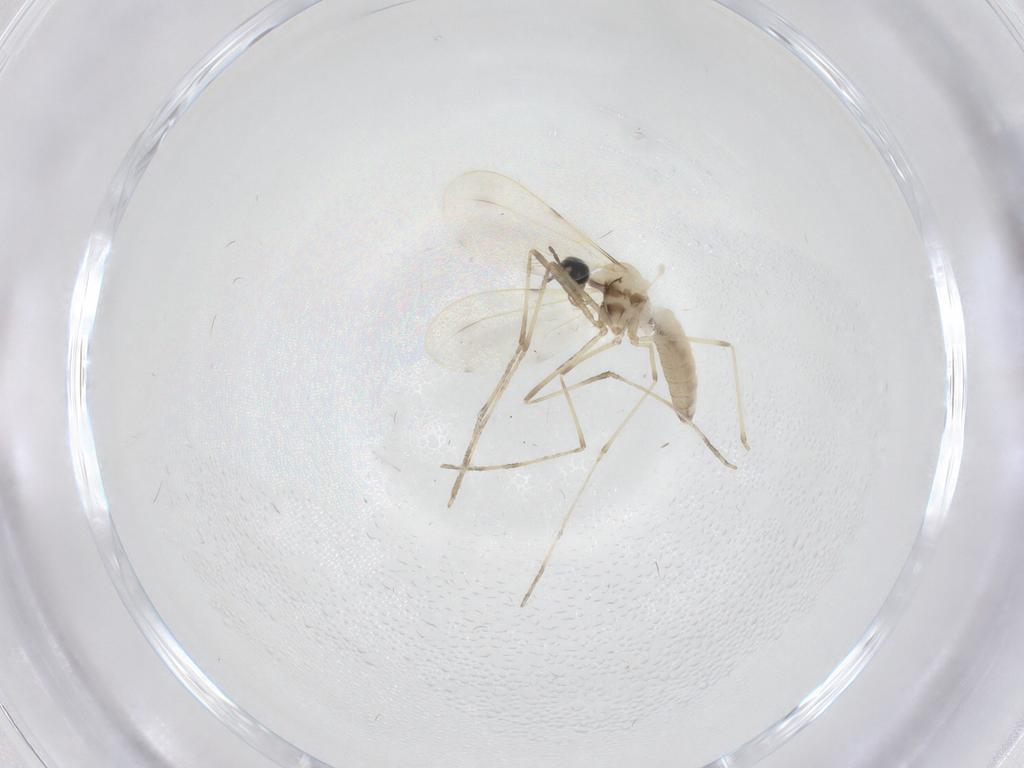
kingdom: Animalia
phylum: Arthropoda
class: Insecta
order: Diptera
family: Cecidomyiidae
